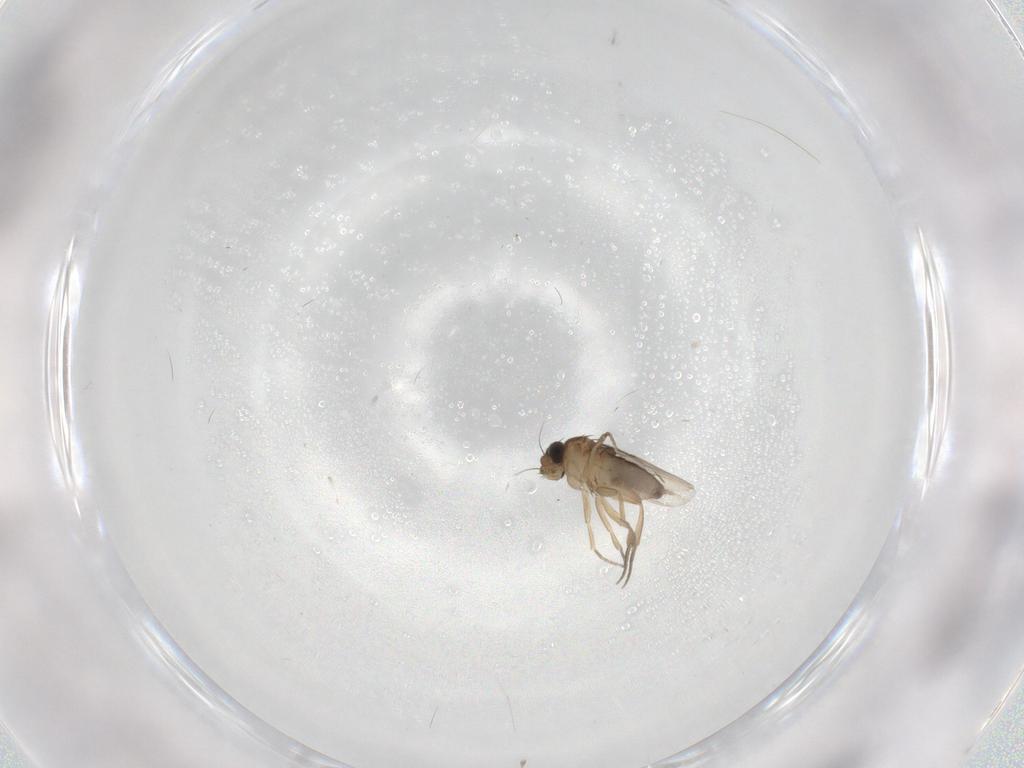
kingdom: Animalia
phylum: Arthropoda
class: Insecta
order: Diptera
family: Phoridae
